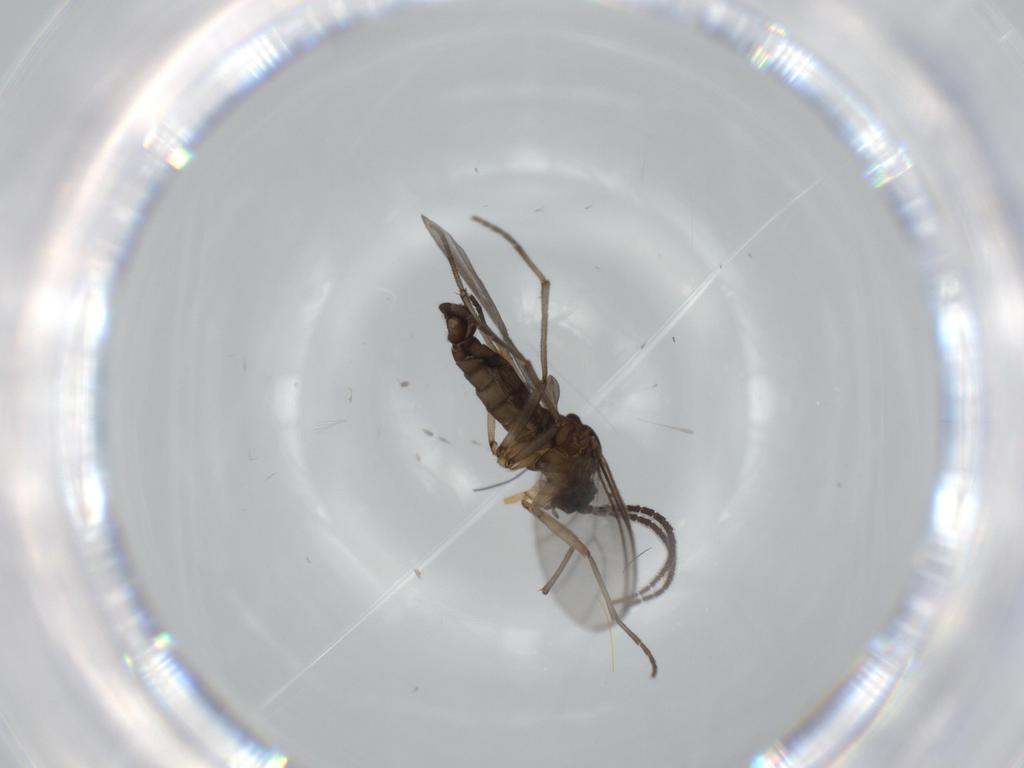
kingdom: Animalia
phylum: Arthropoda
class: Insecta
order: Diptera
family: Sciaridae
